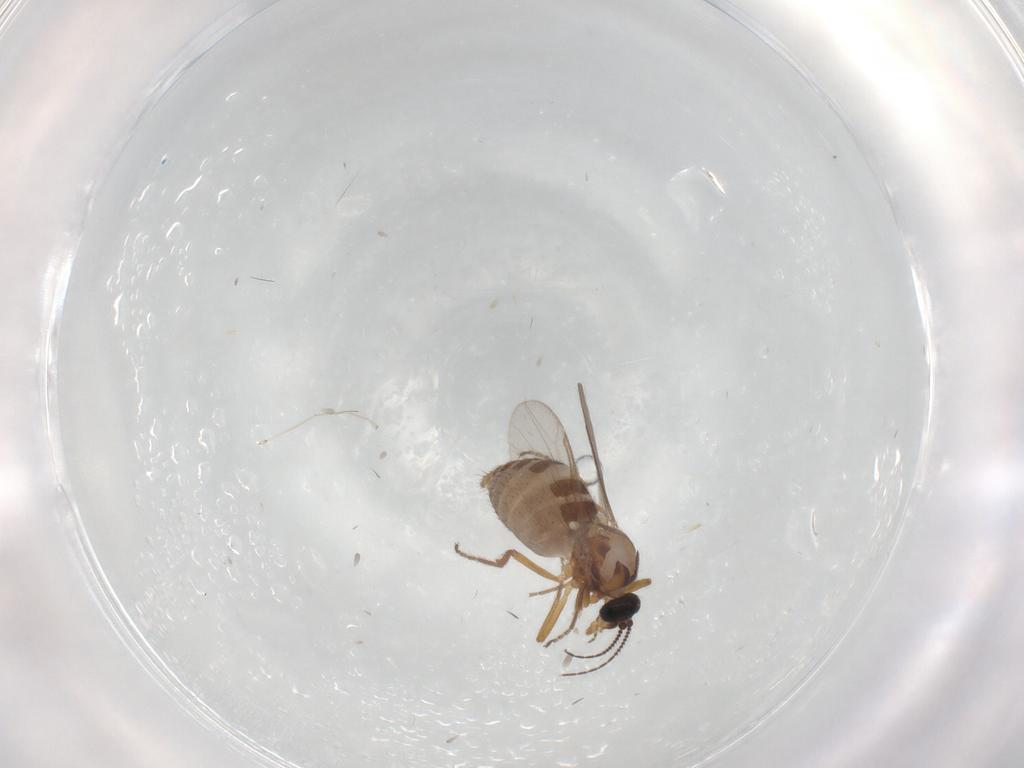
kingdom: Animalia
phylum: Arthropoda
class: Insecta
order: Diptera
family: Ceratopogonidae
